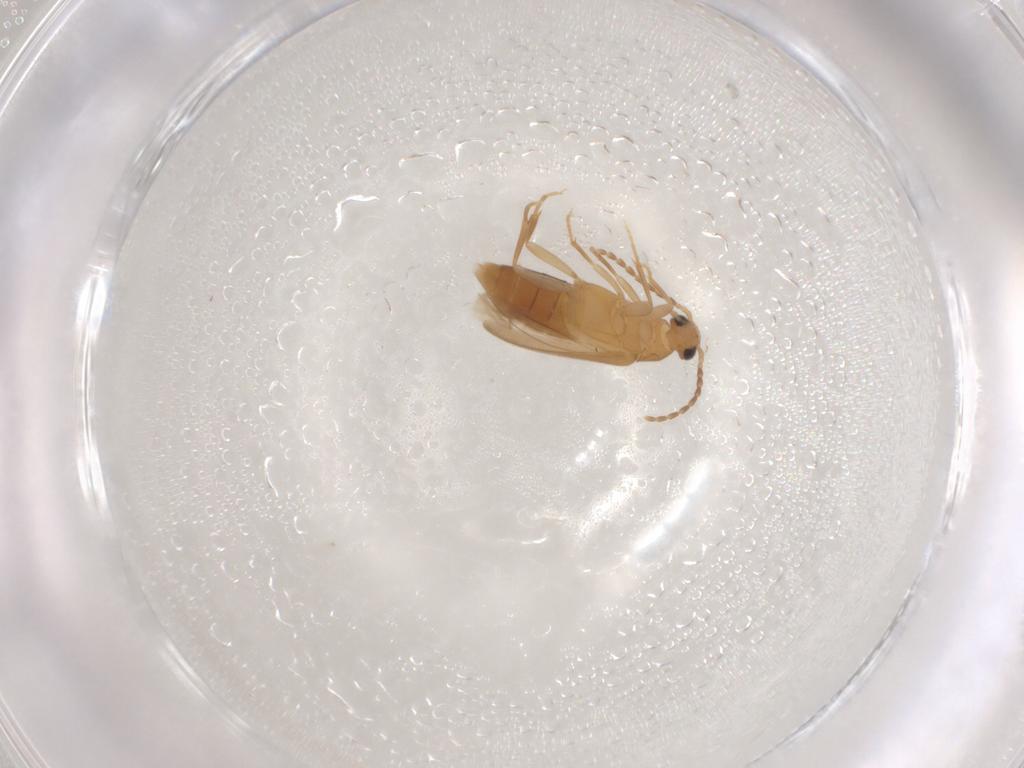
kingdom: Animalia
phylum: Arthropoda
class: Insecta
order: Coleoptera
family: Scraptiidae
